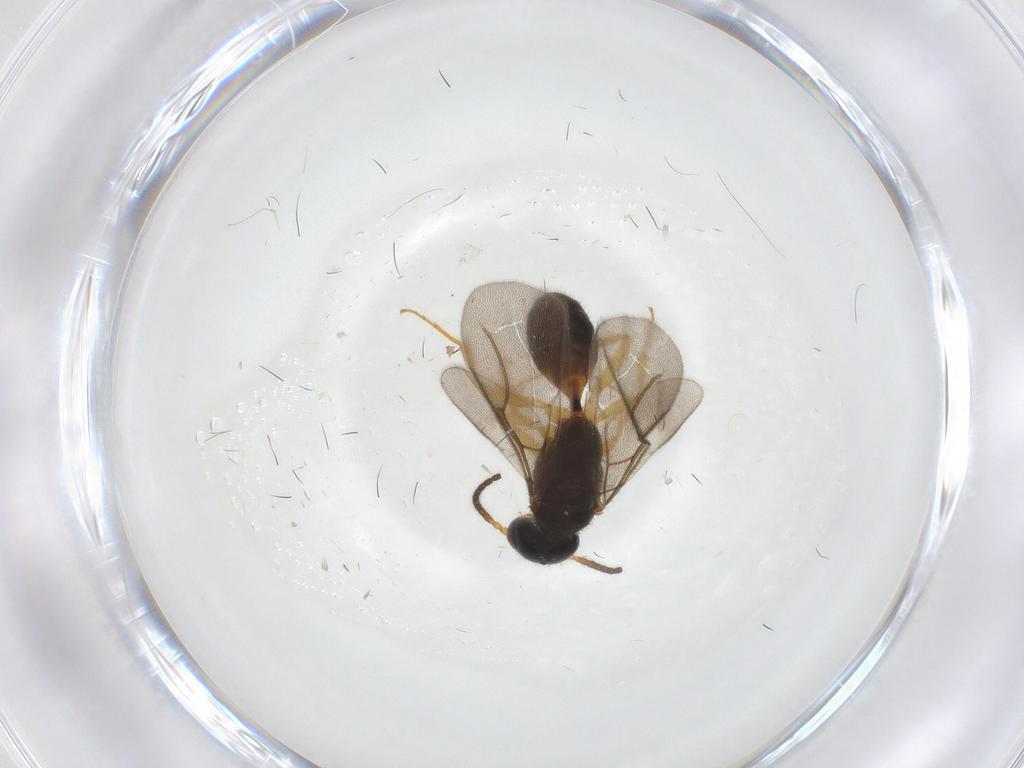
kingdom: Animalia
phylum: Arthropoda
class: Insecta
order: Hymenoptera
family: Bethylidae
